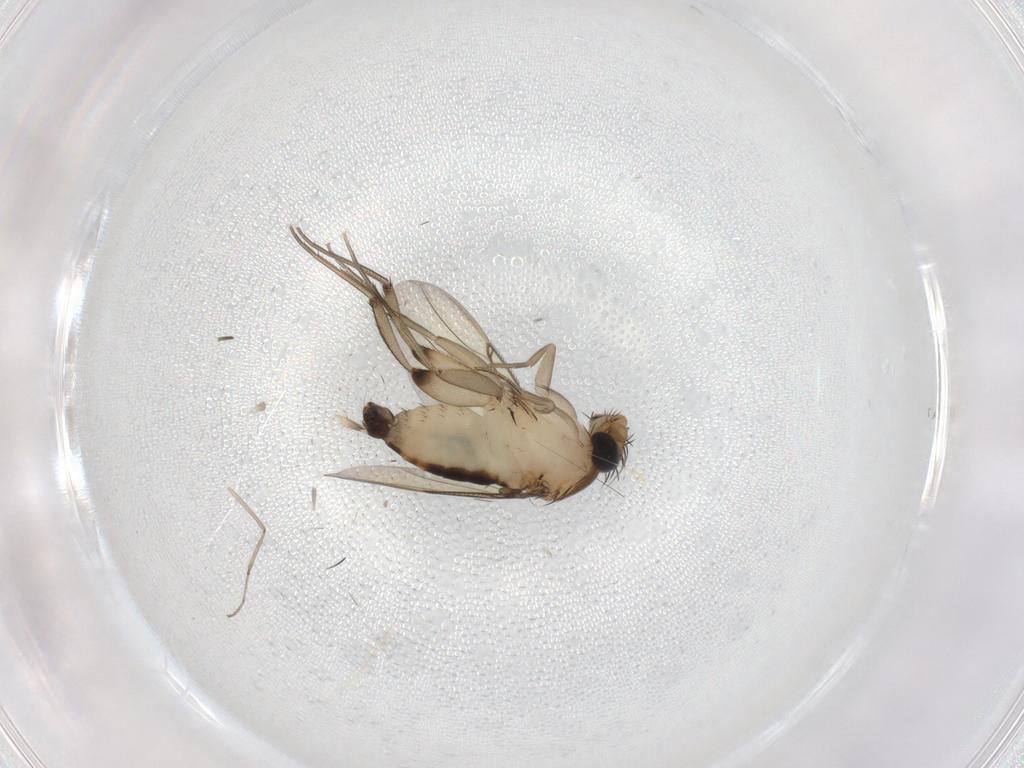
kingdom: Animalia
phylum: Arthropoda
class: Insecta
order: Diptera
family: Phoridae
